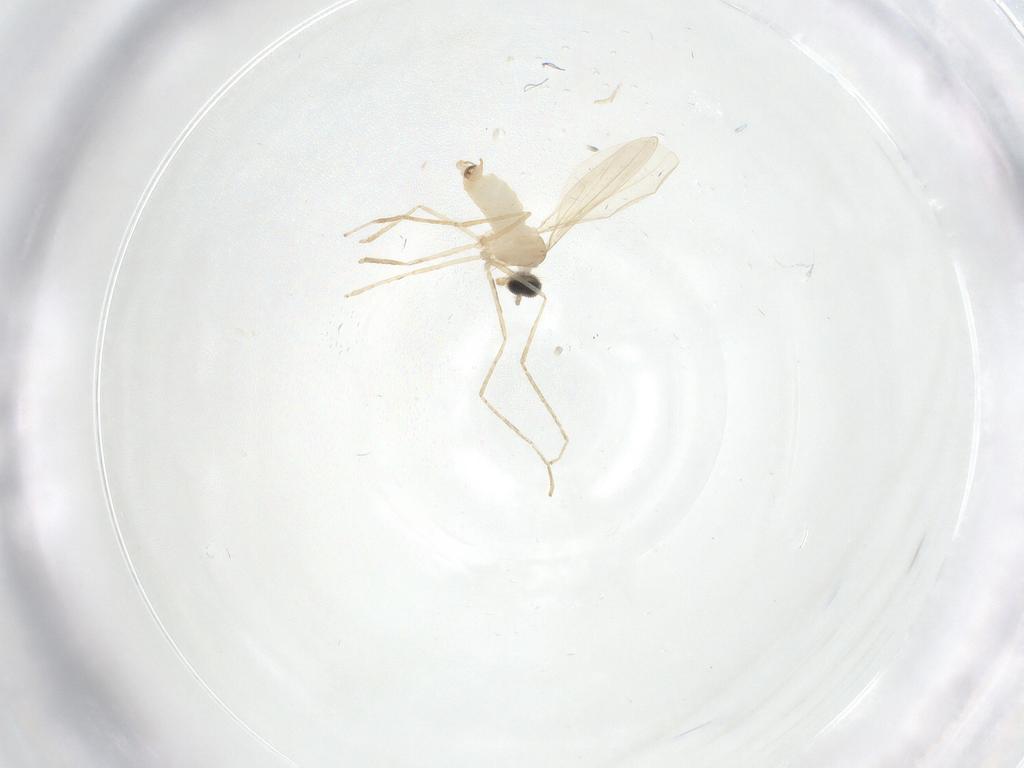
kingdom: Animalia
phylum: Arthropoda
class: Insecta
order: Diptera
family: Cecidomyiidae
